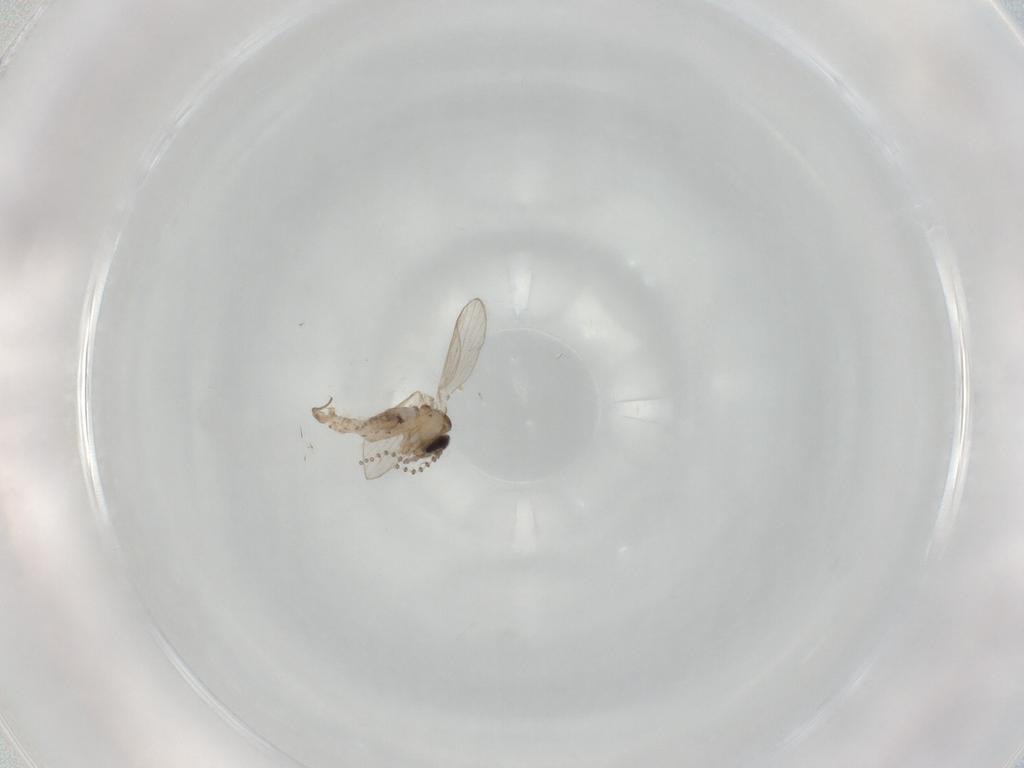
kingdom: Animalia
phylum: Arthropoda
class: Insecta
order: Diptera
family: Psychodidae
